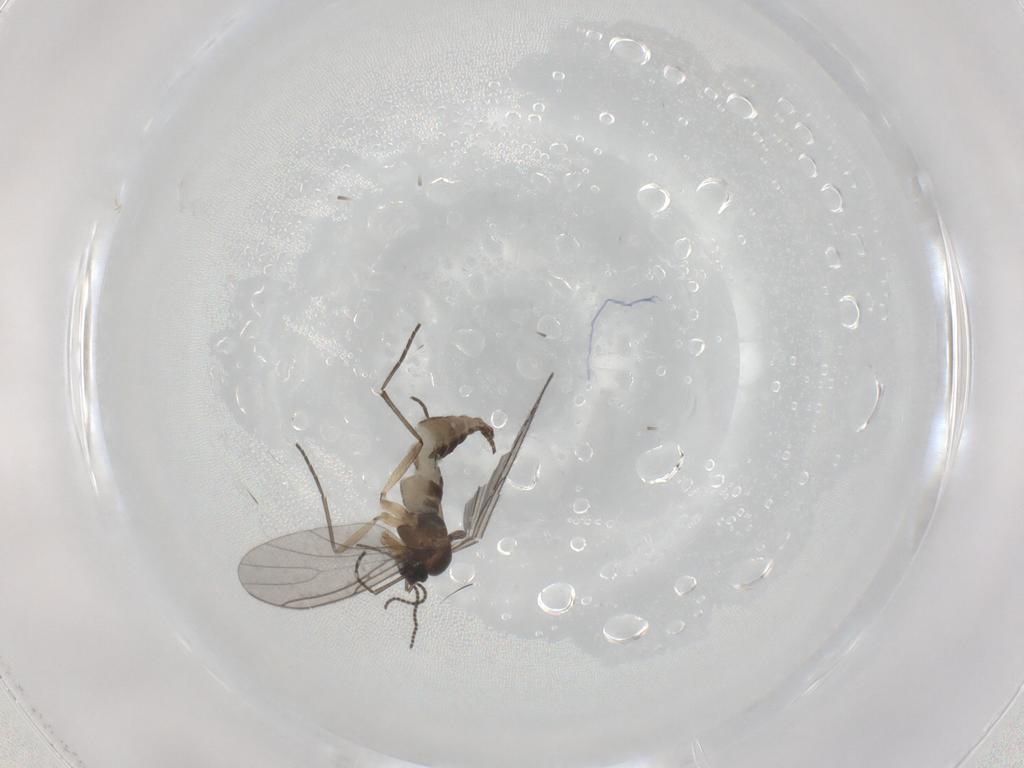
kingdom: Animalia
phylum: Arthropoda
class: Insecta
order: Diptera
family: Sciaridae
